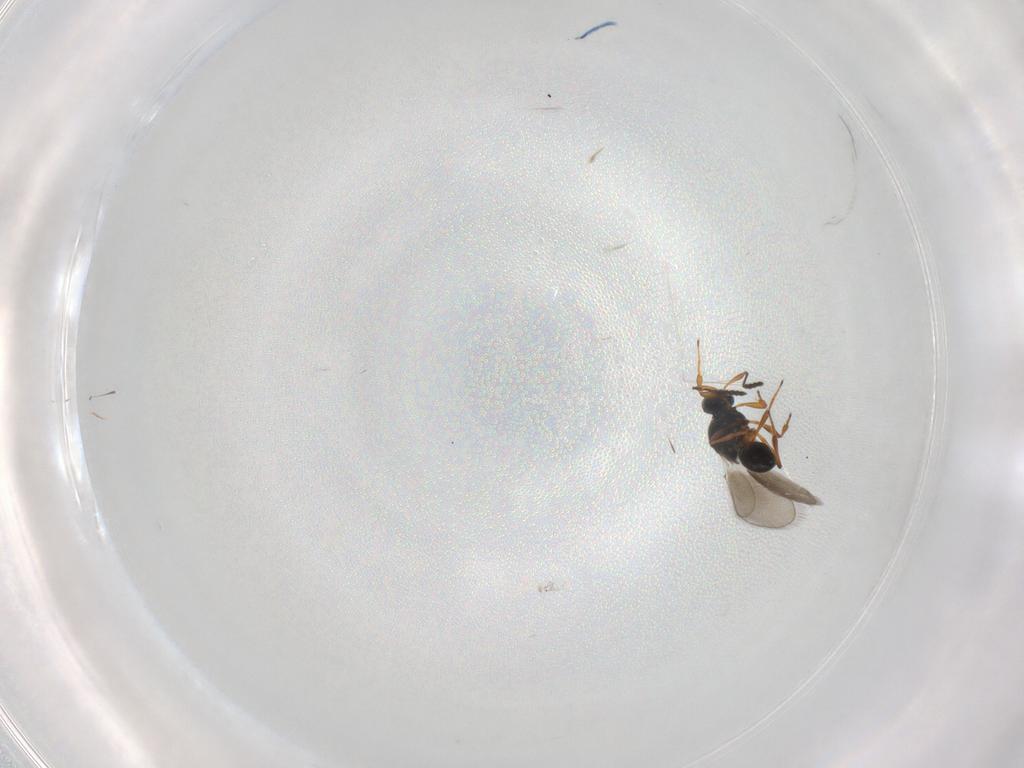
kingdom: Animalia
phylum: Arthropoda
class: Insecta
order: Hymenoptera
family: Platygastridae
